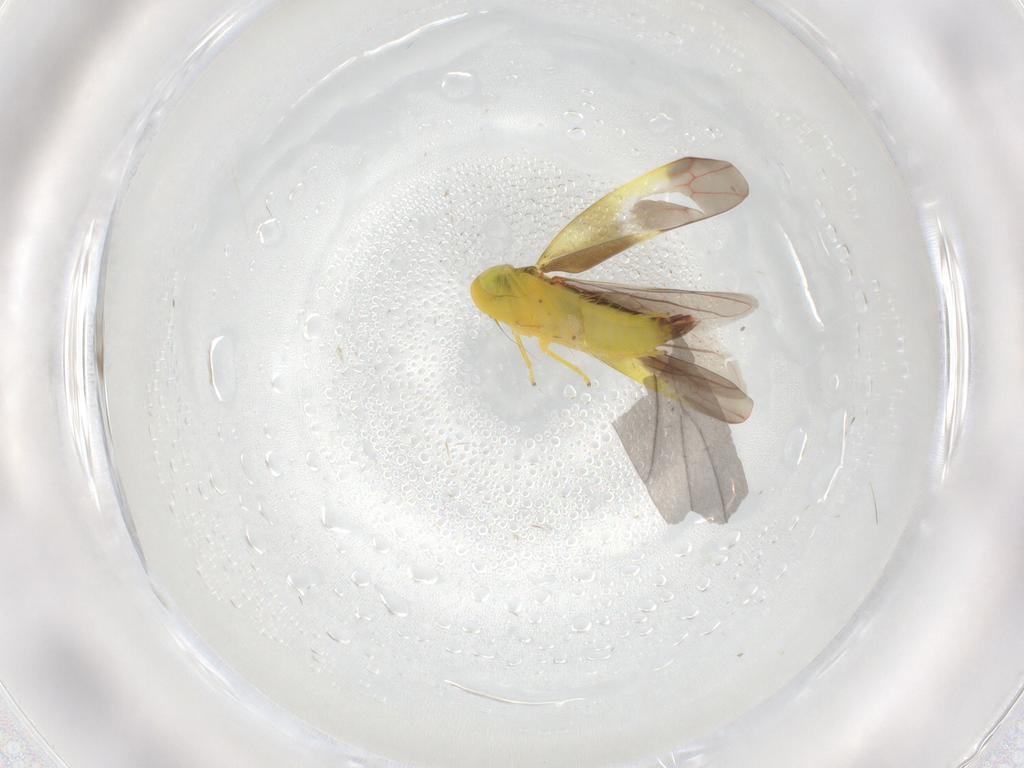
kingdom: Animalia
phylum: Arthropoda
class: Insecta
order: Hemiptera
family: Cicadellidae
